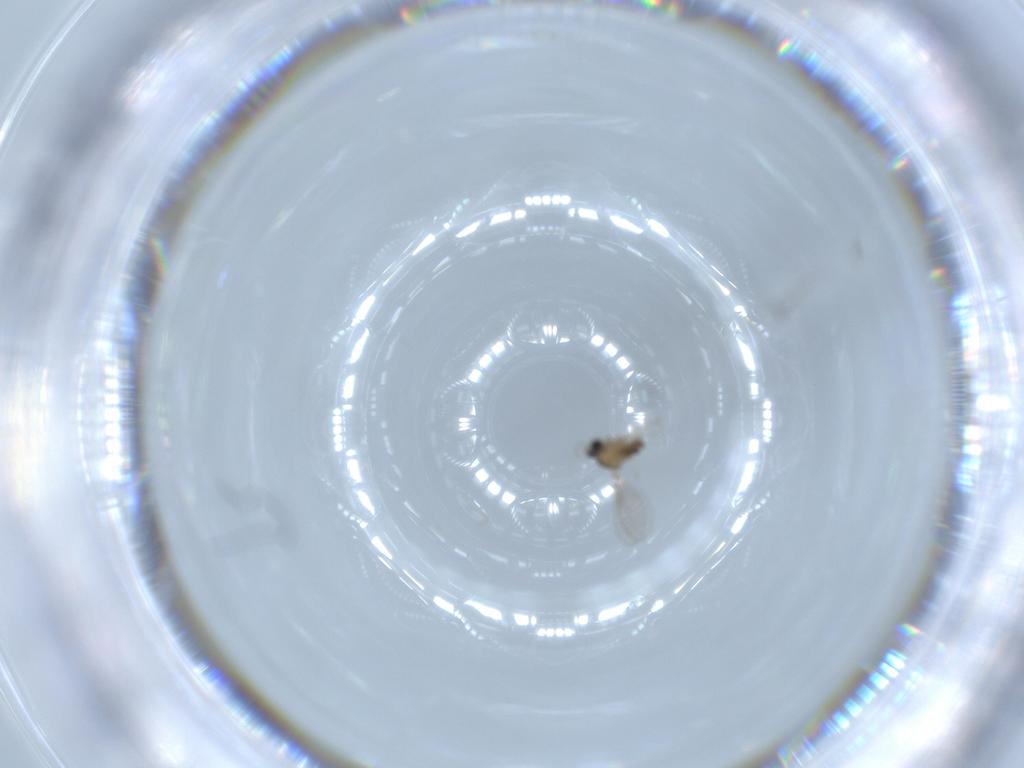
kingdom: Animalia
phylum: Arthropoda
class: Insecta
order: Diptera
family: Cecidomyiidae
